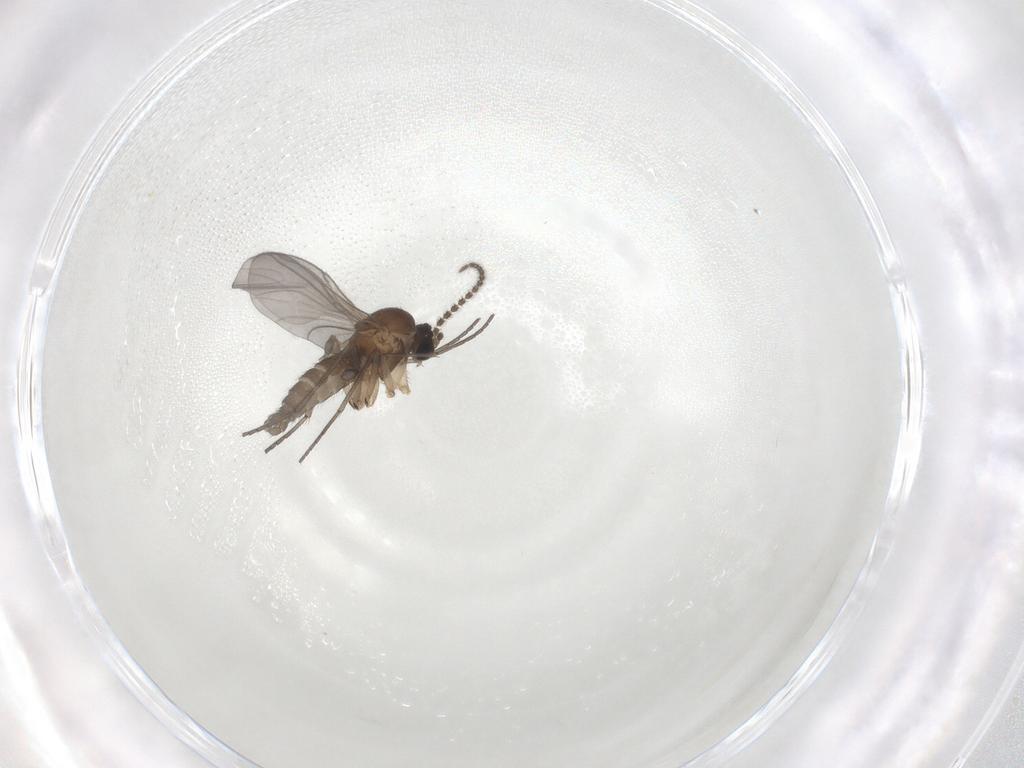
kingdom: Animalia
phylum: Arthropoda
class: Insecta
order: Diptera
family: Sciaridae
